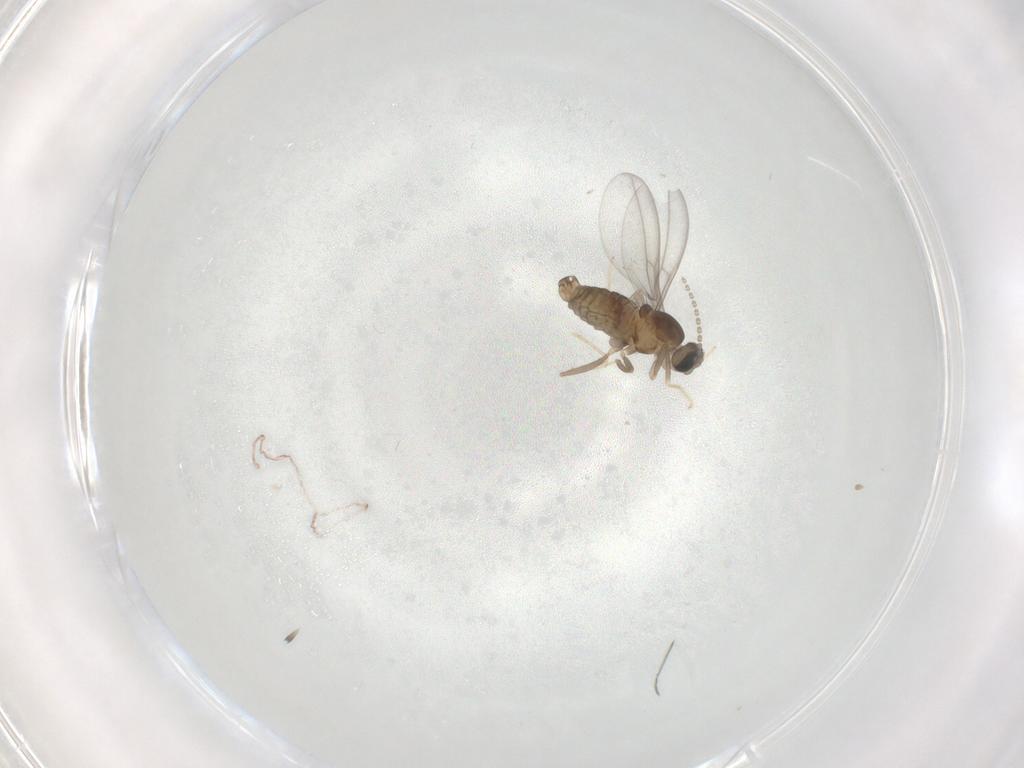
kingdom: Animalia
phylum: Arthropoda
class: Insecta
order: Diptera
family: Cecidomyiidae
